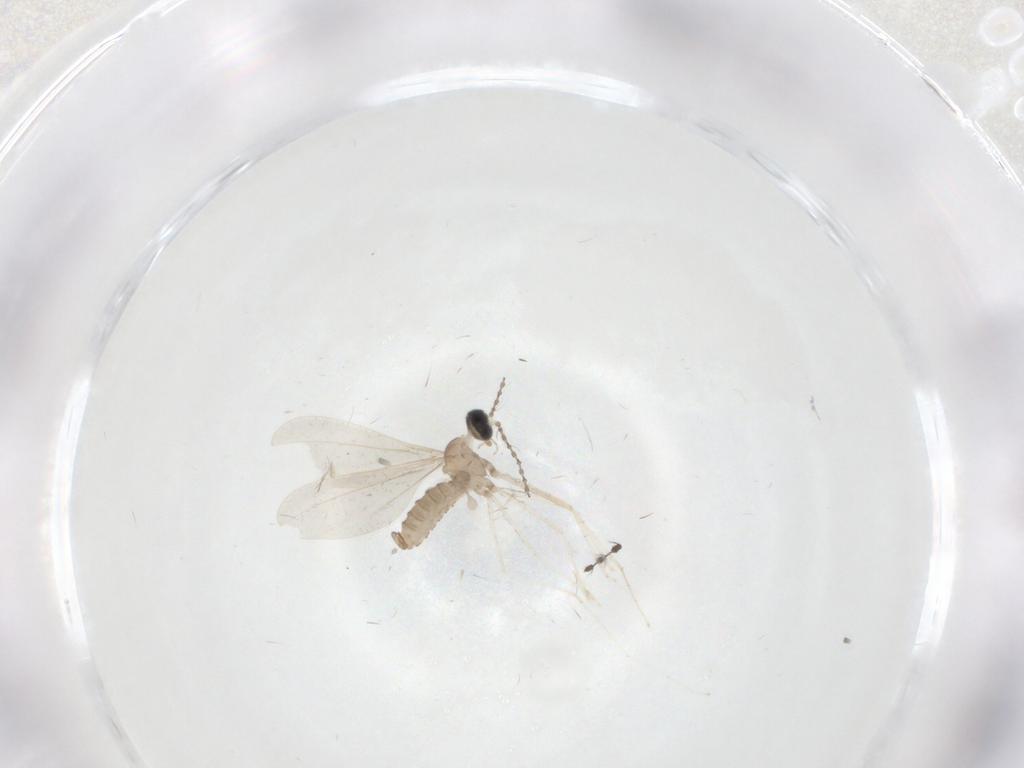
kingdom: Animalia
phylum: Arthropoda
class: Insecta
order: Diptera
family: Cecidomyiidae
